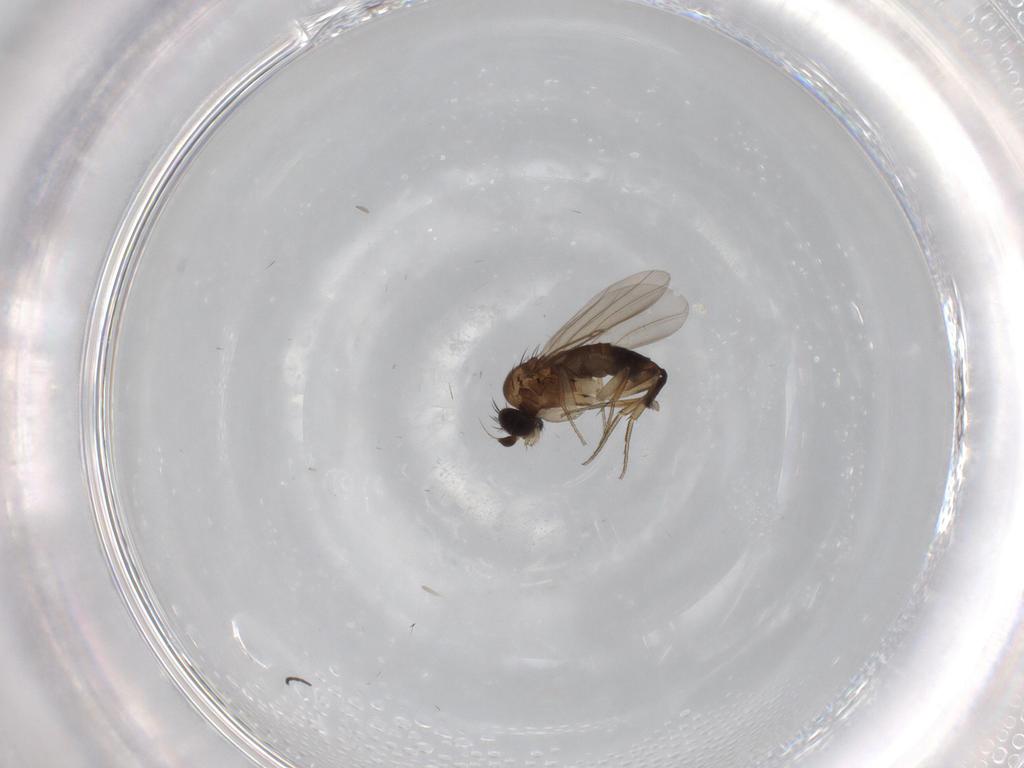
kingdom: Animalia
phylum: Arthropoda
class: Insecta
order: Diptera
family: Phoridae
